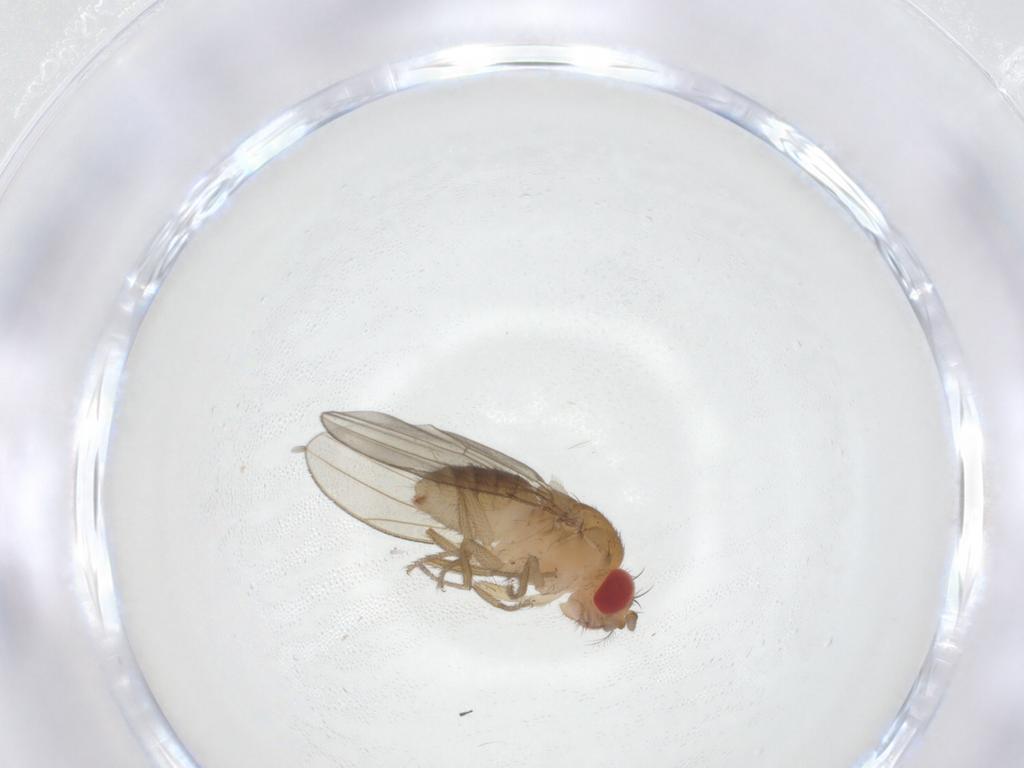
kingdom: Animalia
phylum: Arthropoda
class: Insecta
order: Diptera
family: Drosophilidae
